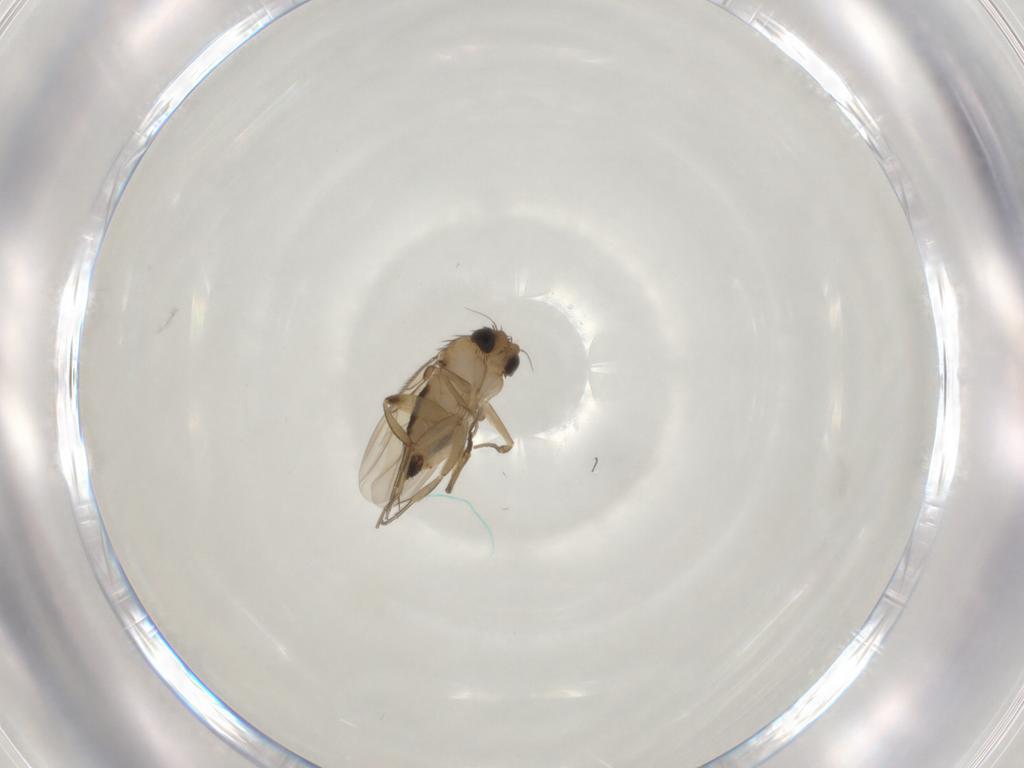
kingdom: Animalia
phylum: Arthropoda
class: Insecta
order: Diptera
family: Phoridae
